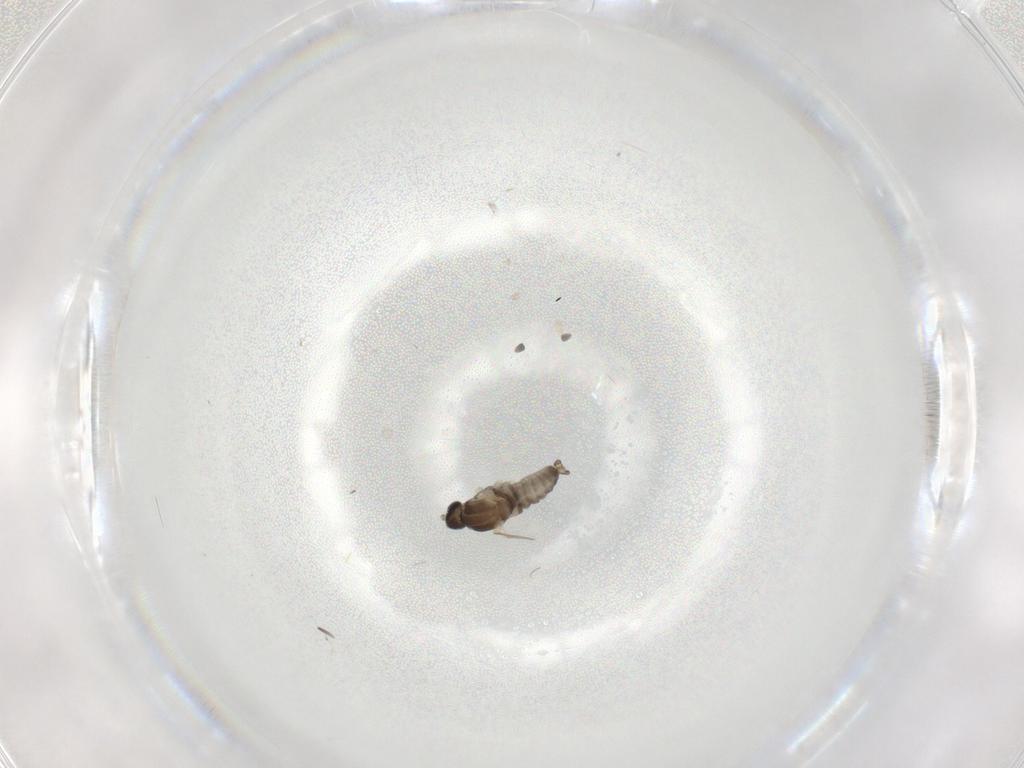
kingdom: Animalia
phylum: Arthropoda
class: Insecta
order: Diptera
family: Cecidomyiidae
